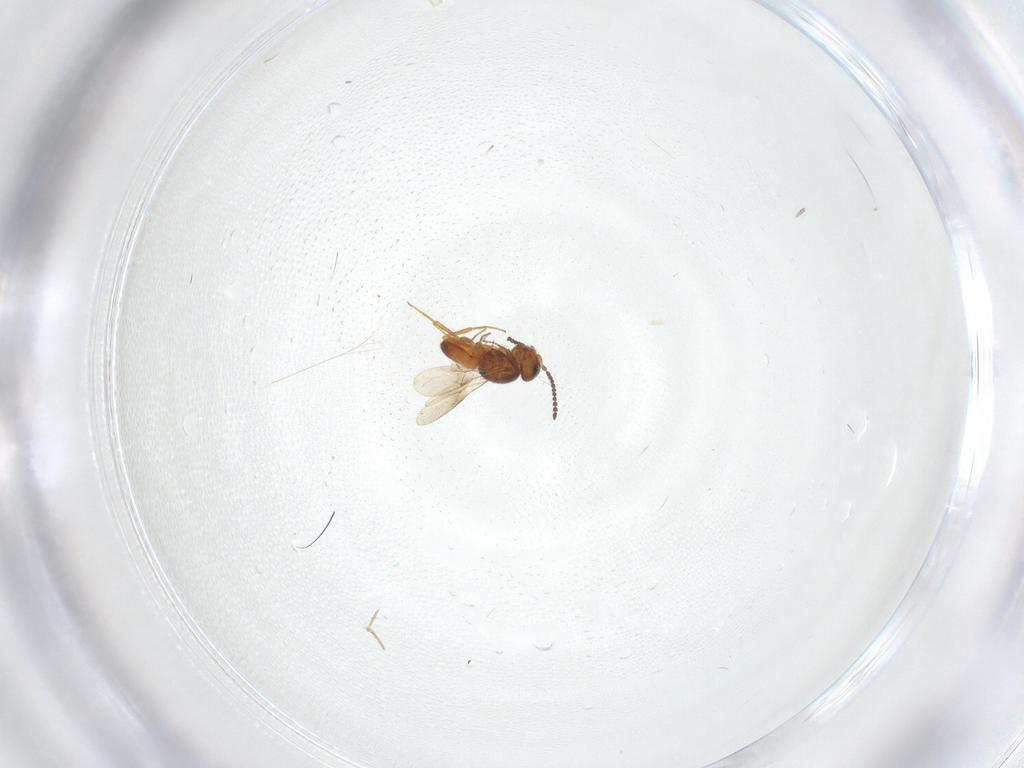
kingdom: Animalia
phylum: Arthropoda
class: Insecta
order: Hymenoptera
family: Scelionidae
